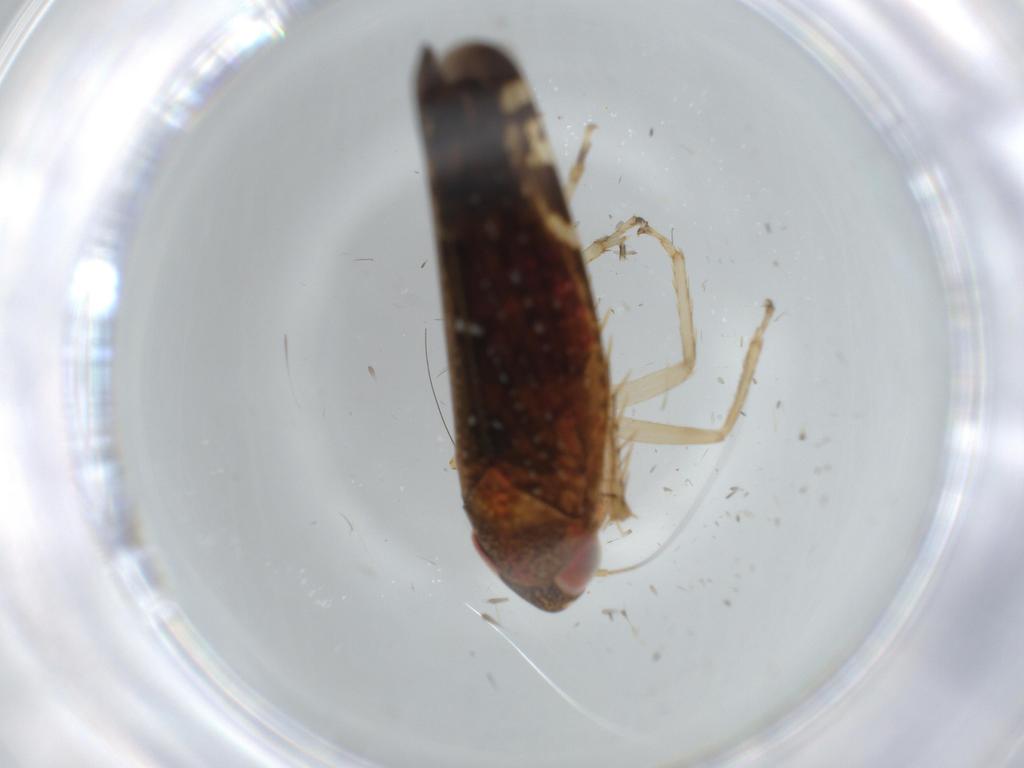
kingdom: Animalia
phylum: Arthropoda
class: Insecta
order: Hemiptera
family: Cicadellidae
